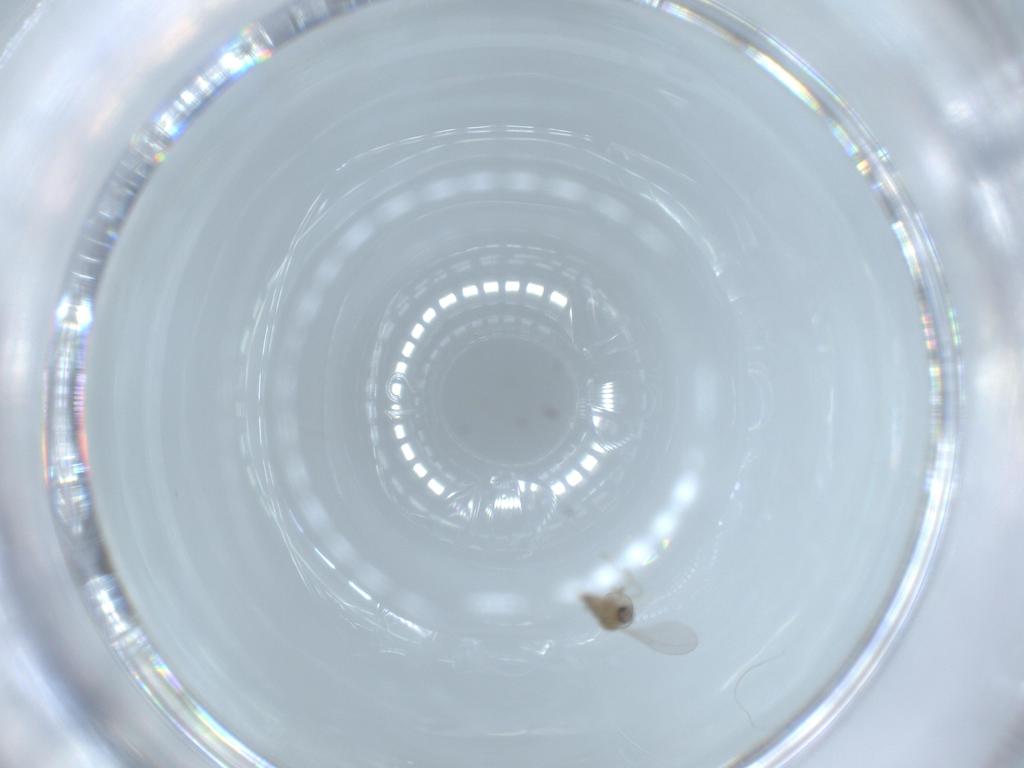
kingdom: Animalia
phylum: Arthropoda
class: Insecta
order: Diptera
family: Cecidomyiidae
